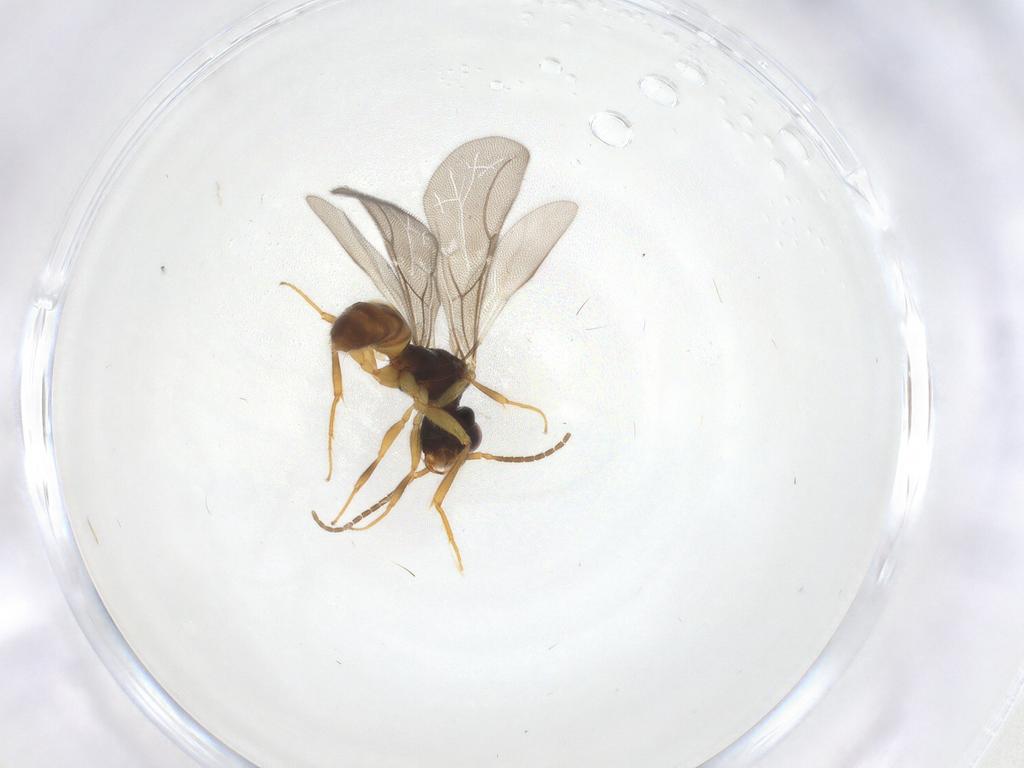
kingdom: Animalia
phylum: Arthropoda
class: Insecta
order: Hymenoptera
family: Bethylidae
